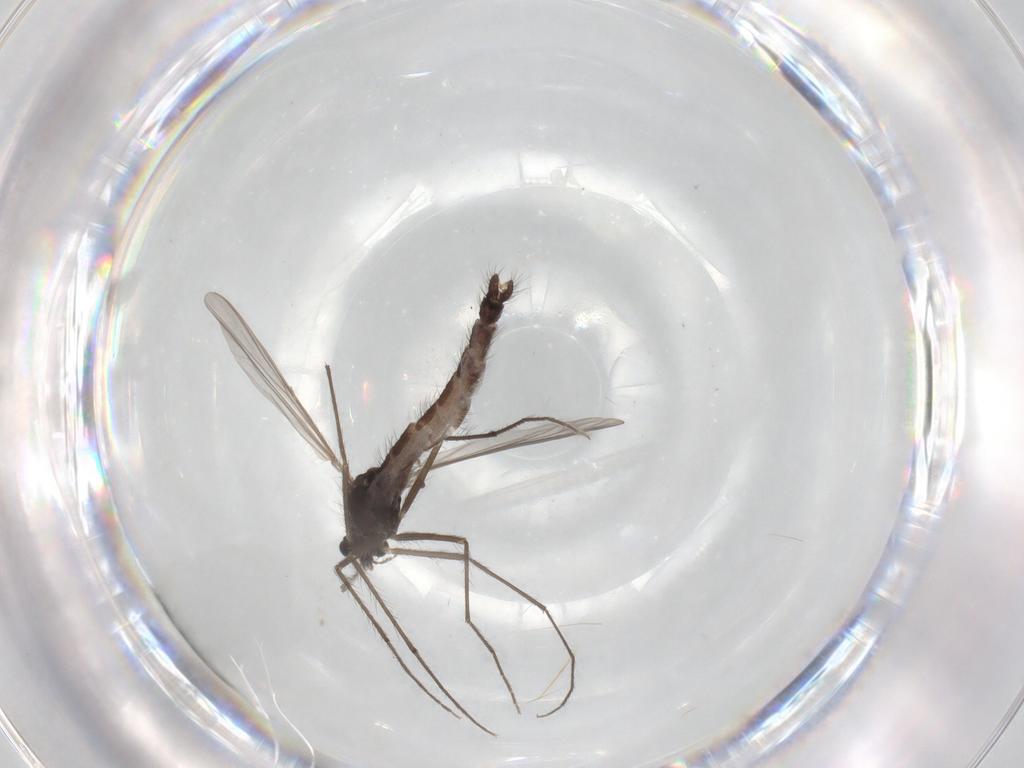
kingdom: Animalia
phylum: Arthropoda
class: Insecta
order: Diptera
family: Chironomidae
